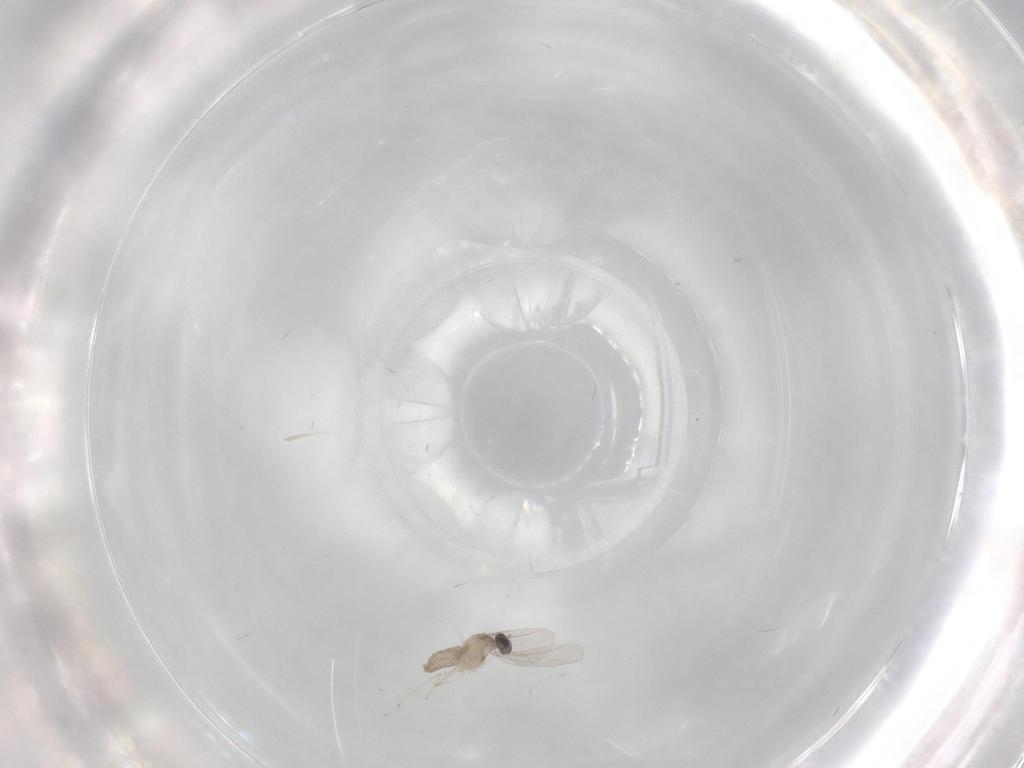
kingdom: Animalia
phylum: Arthropoda
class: Insecta
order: Diptera
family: Cecidomyiidae
